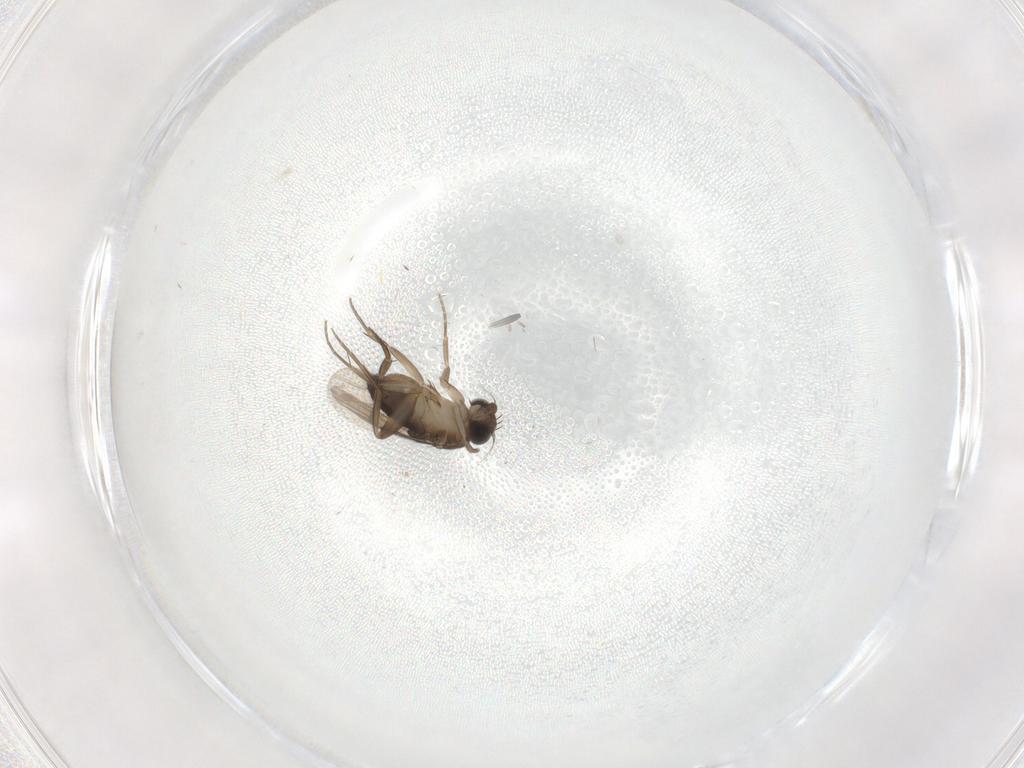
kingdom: Animalia
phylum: Arthropoda
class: Insecta
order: Diptera
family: Phoridae
